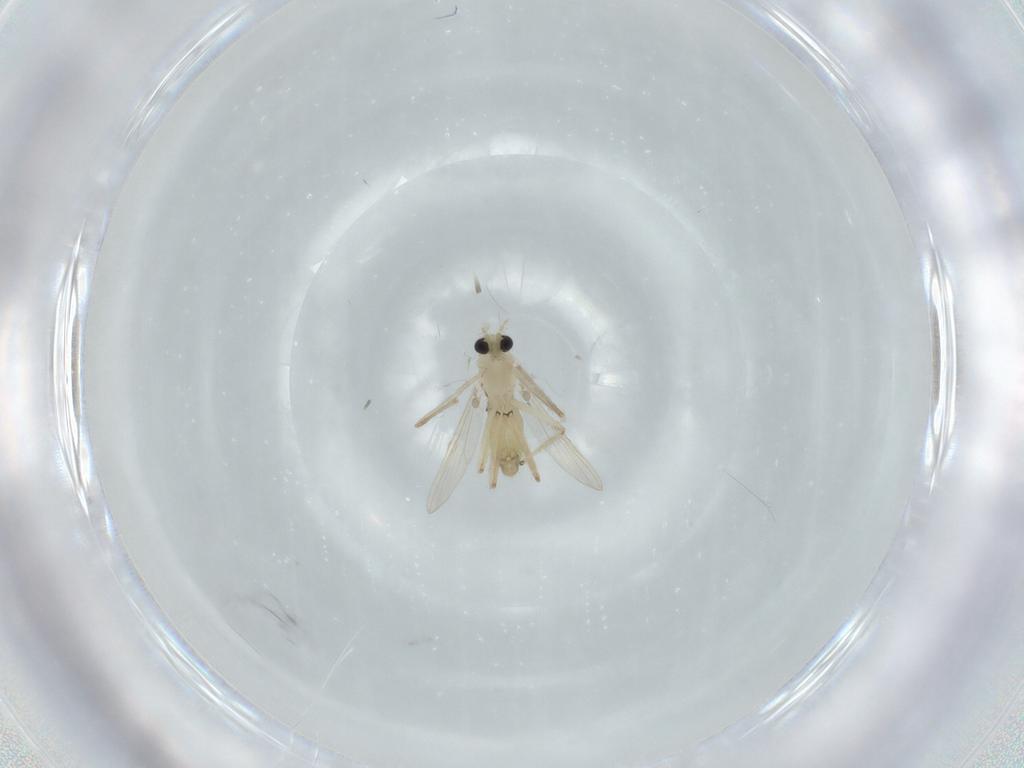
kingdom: Animalia
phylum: Arthropoda
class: Insecta
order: Diptera
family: Chironomidae
